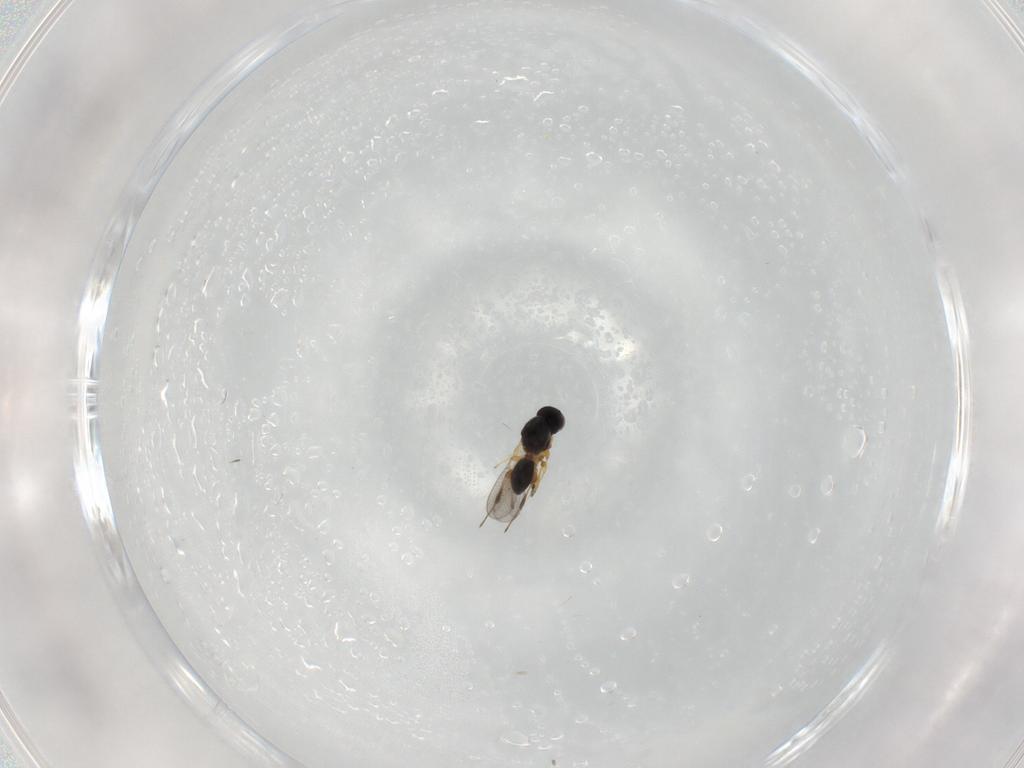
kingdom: Animalia
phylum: Arthropoda
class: Insecta
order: Hymenoptera
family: Platygastridae
